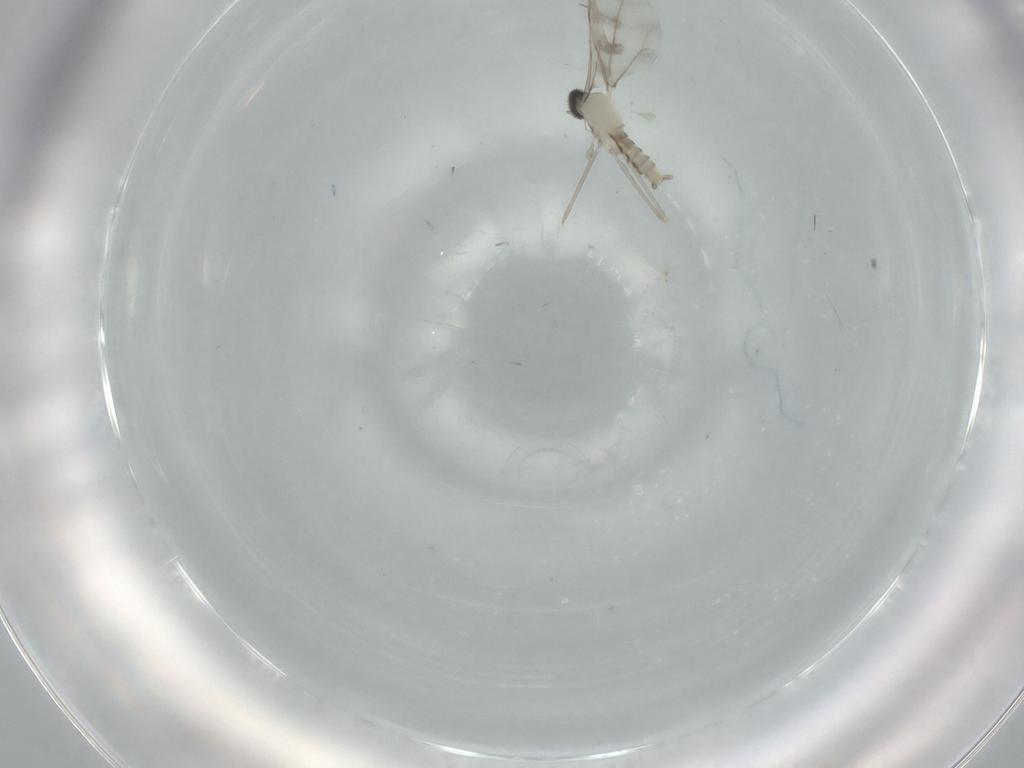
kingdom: Animalia
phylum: Arthropoda
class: Insecta
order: Diptera
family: Cecidomyiidae
